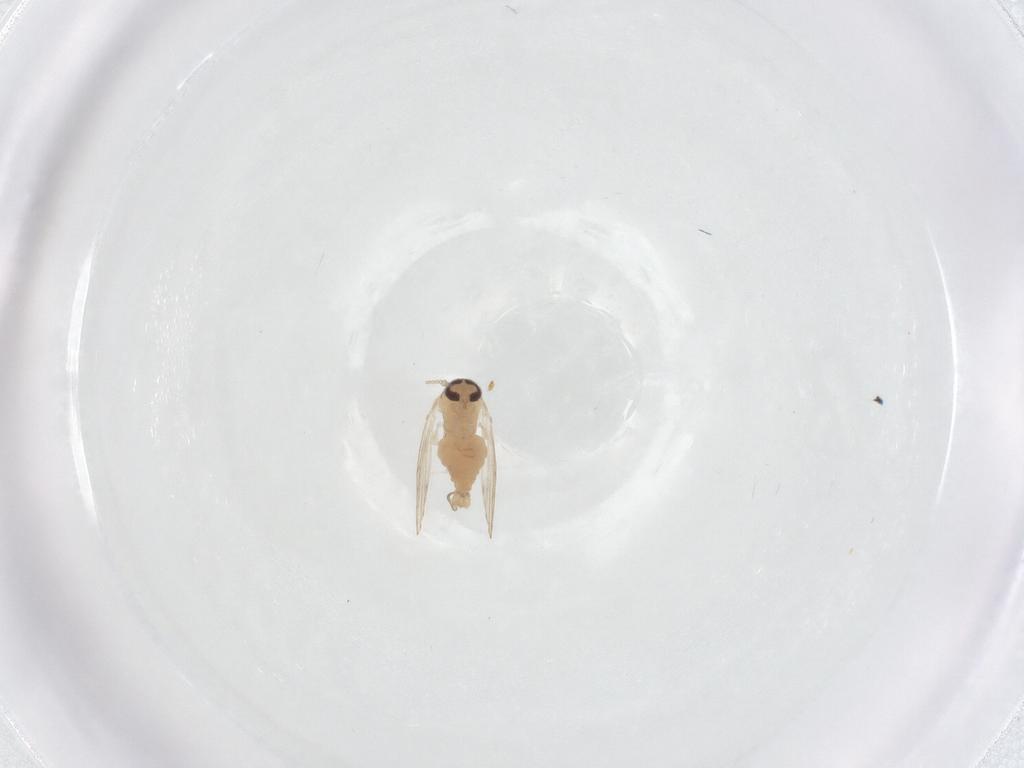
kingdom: Animalia
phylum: Arthropoda
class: Insecta
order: Diptera
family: Psychodidae
